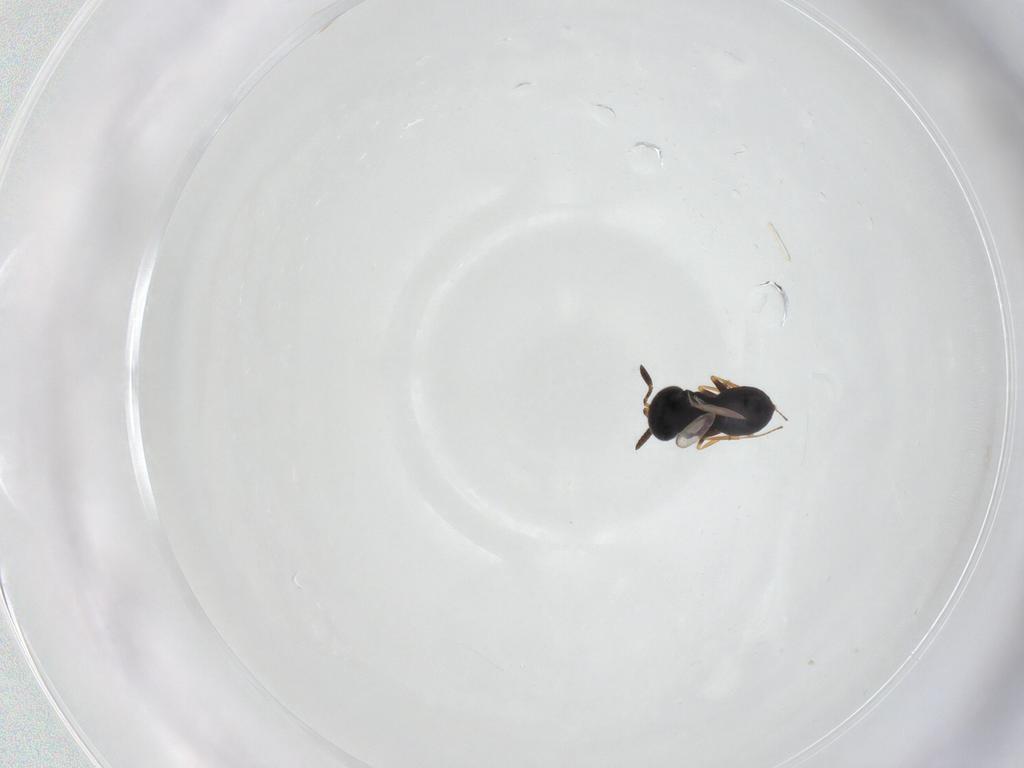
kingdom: Animalia
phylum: Arthropoda
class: Insecta
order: Hymenoptera
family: Scelionidae
